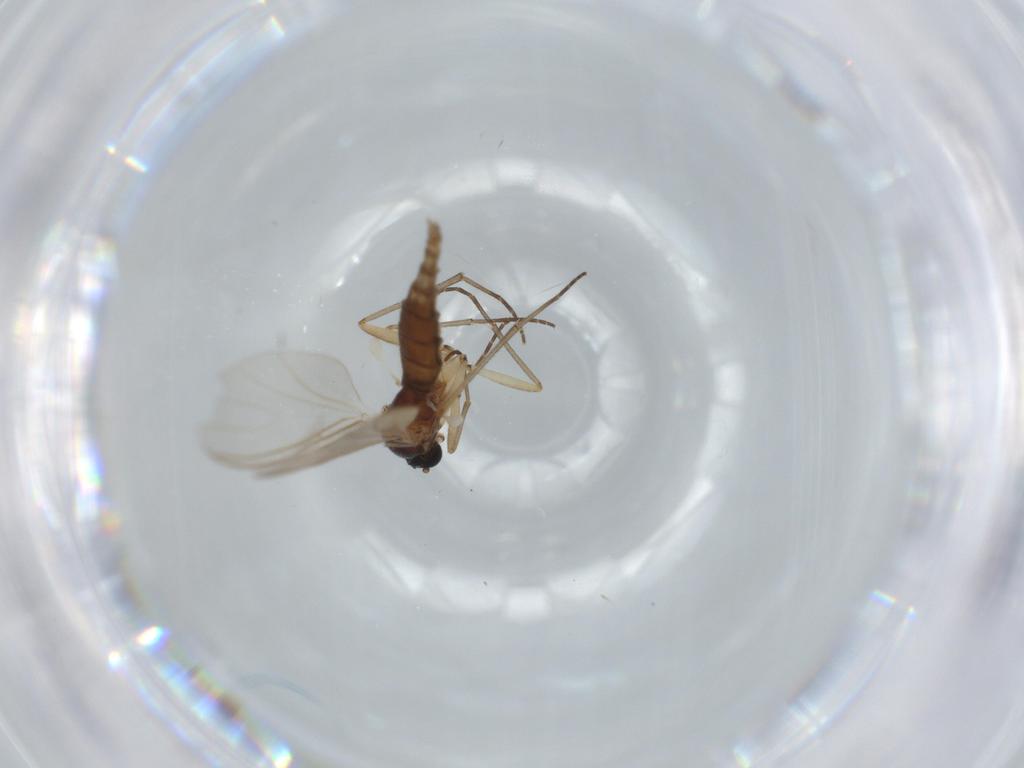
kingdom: Animalia
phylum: Arthropoda
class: Insecta
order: Diptera
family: Sciaridae
